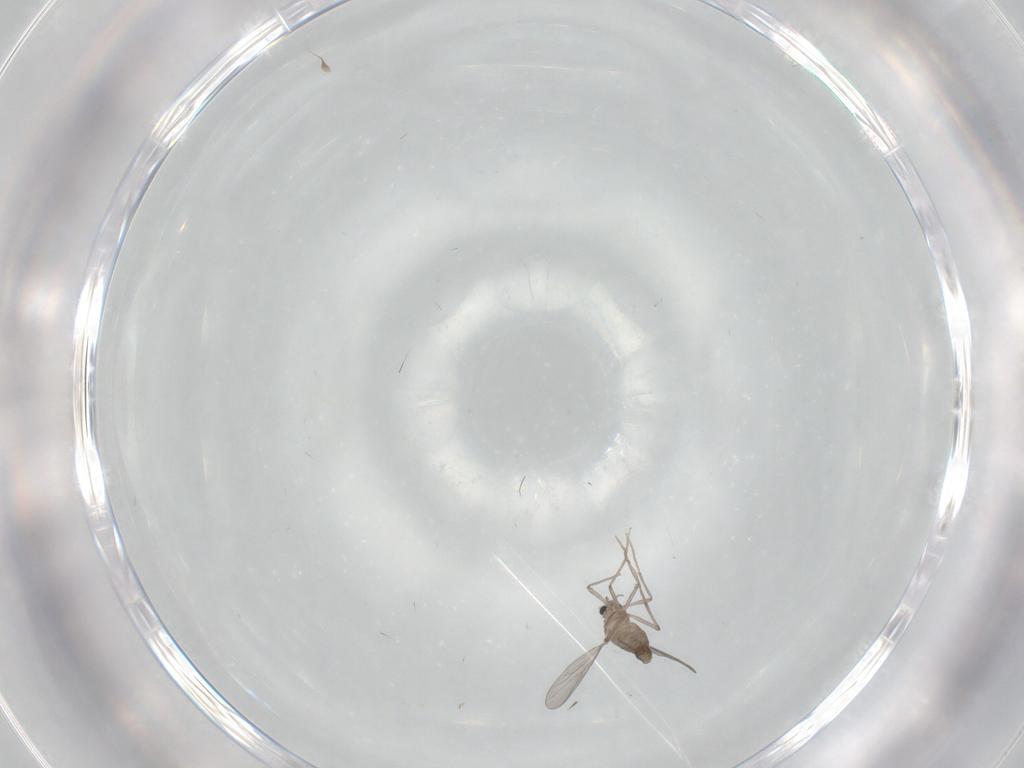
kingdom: Animalia
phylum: Arthropoda
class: Insecta
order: Diptera
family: Chironomidae
